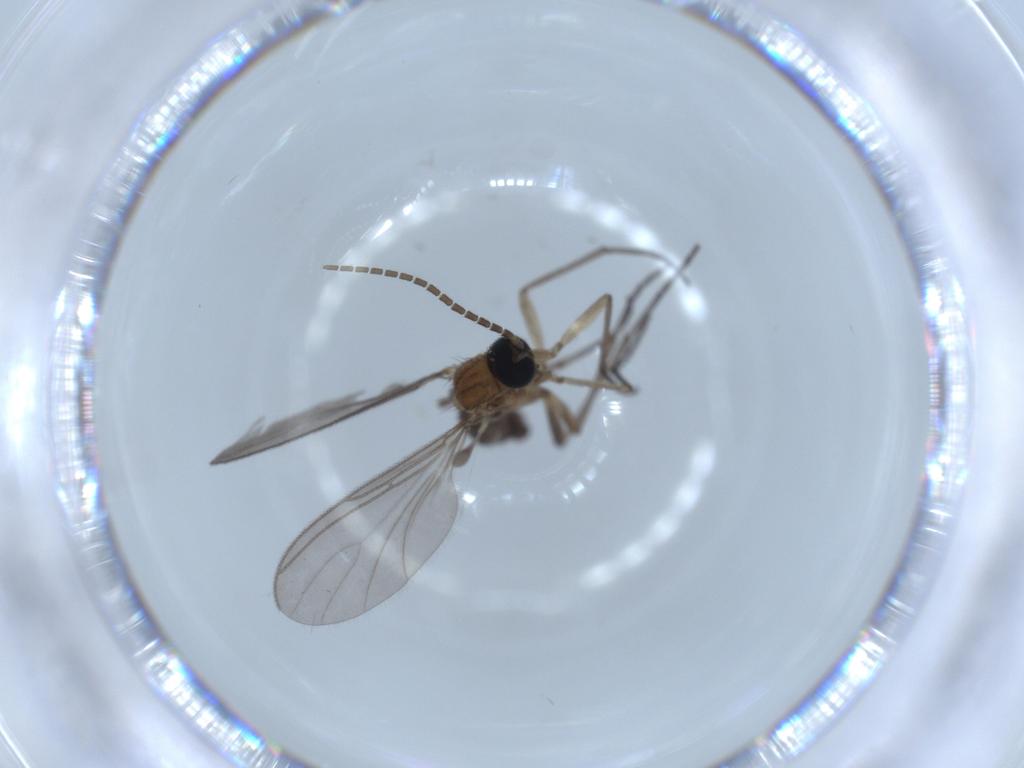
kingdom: Animalia
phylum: Arthropoda
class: Insecta
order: Diptera
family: Sciaridae
